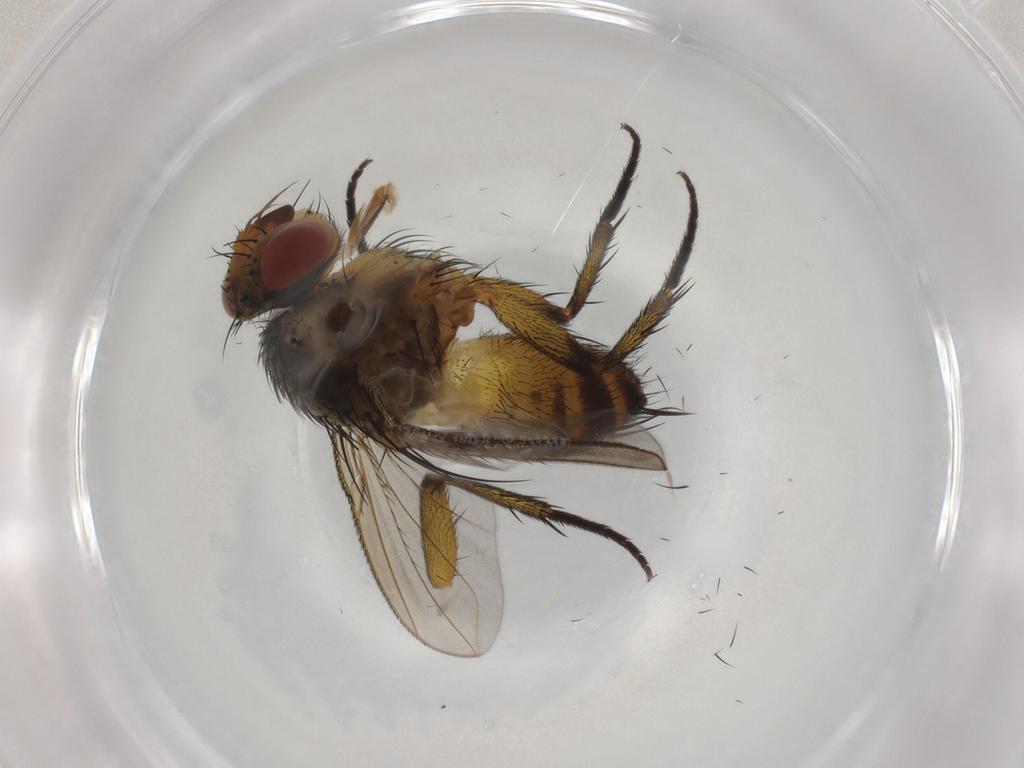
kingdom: Animalia
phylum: Arthropoda
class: Insecta
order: Diptera
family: Tachinidae
